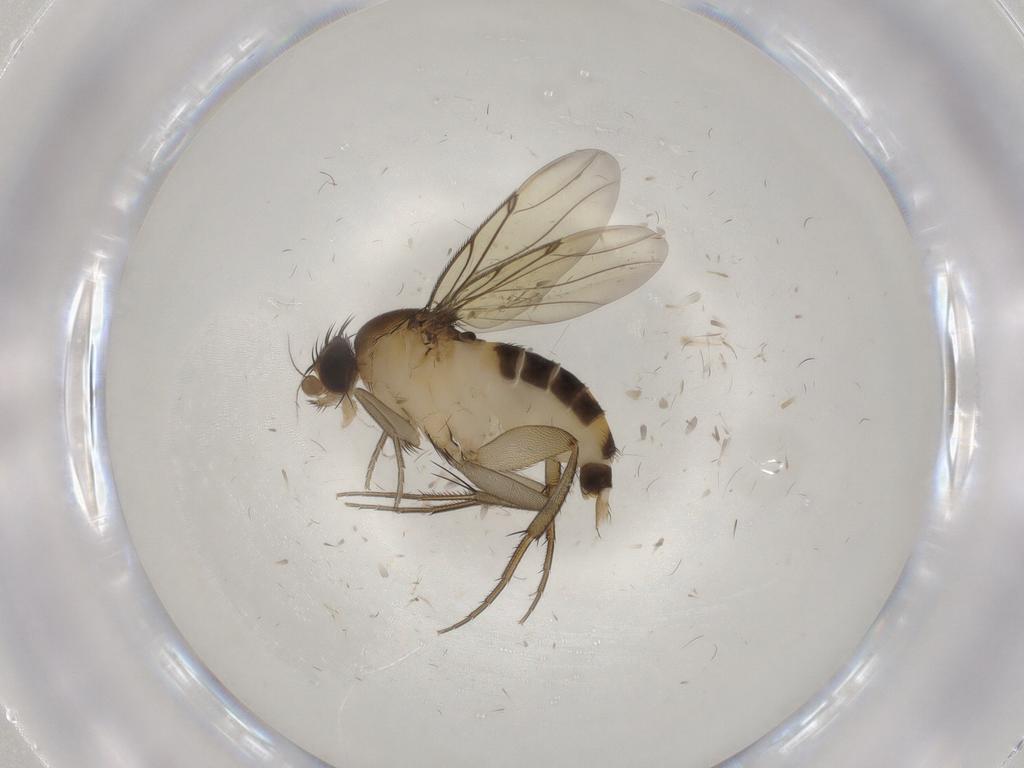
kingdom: Animalia
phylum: Arthropoda
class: Insecta
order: Diptera
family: Phoridae
